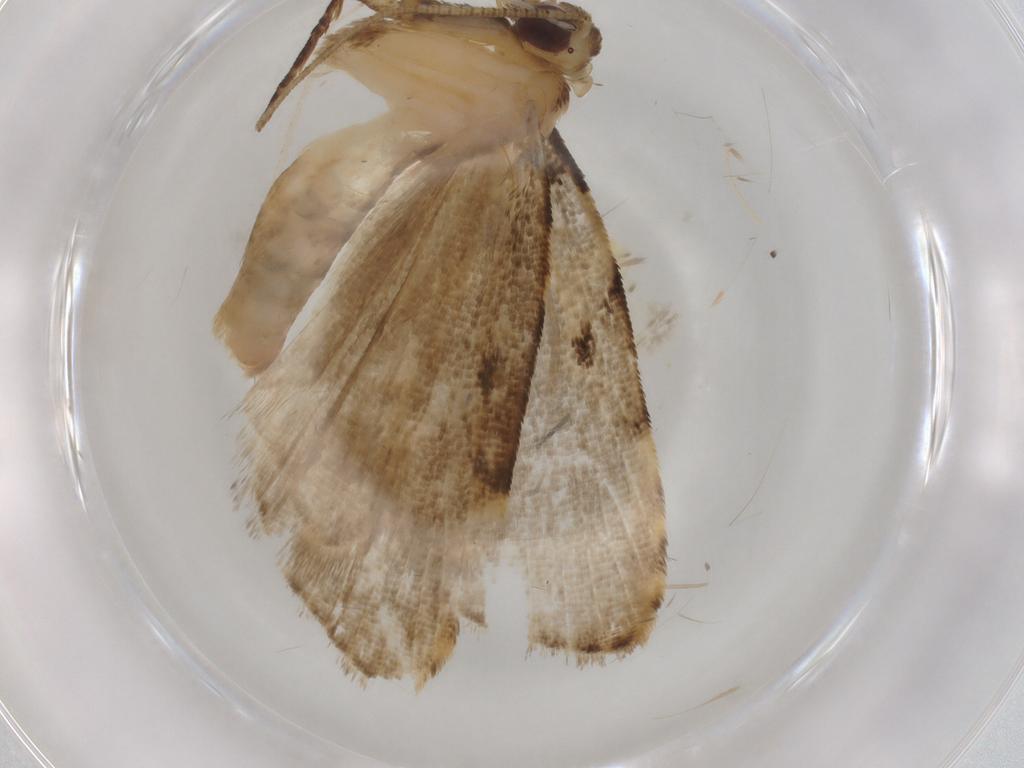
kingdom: Animalia
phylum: Arthropoda
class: Insecta
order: Lepidoptera
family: Erebidae
